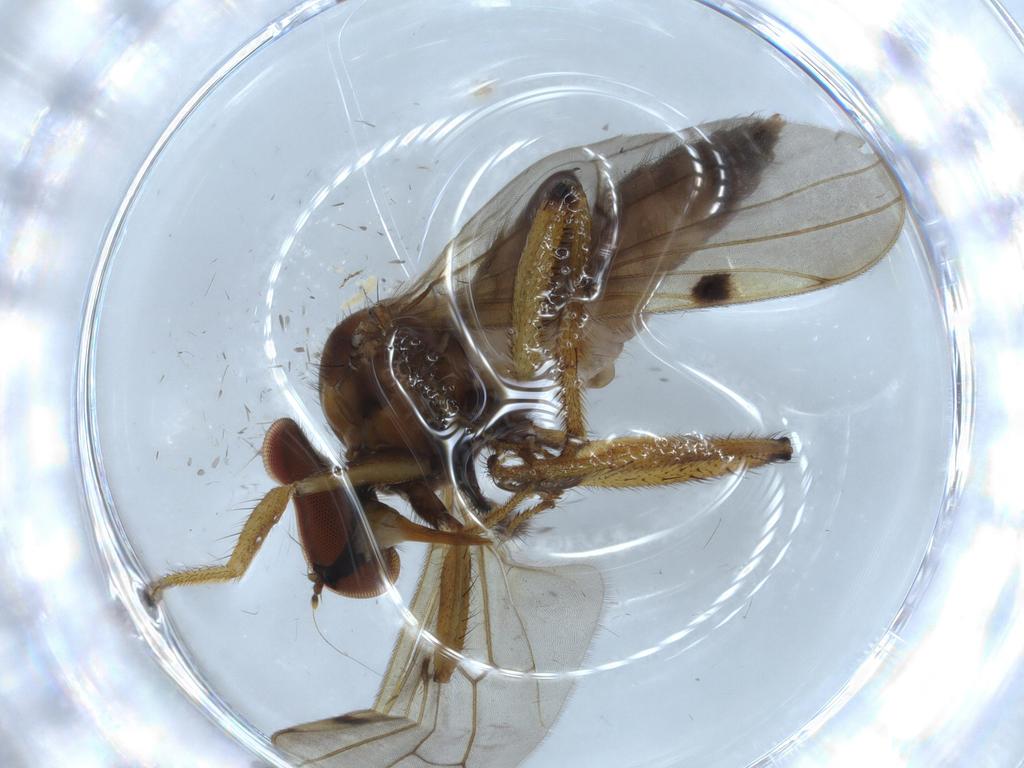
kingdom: Animalia
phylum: Arthropoda
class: Insecta
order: Diptera
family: Hybotidae
